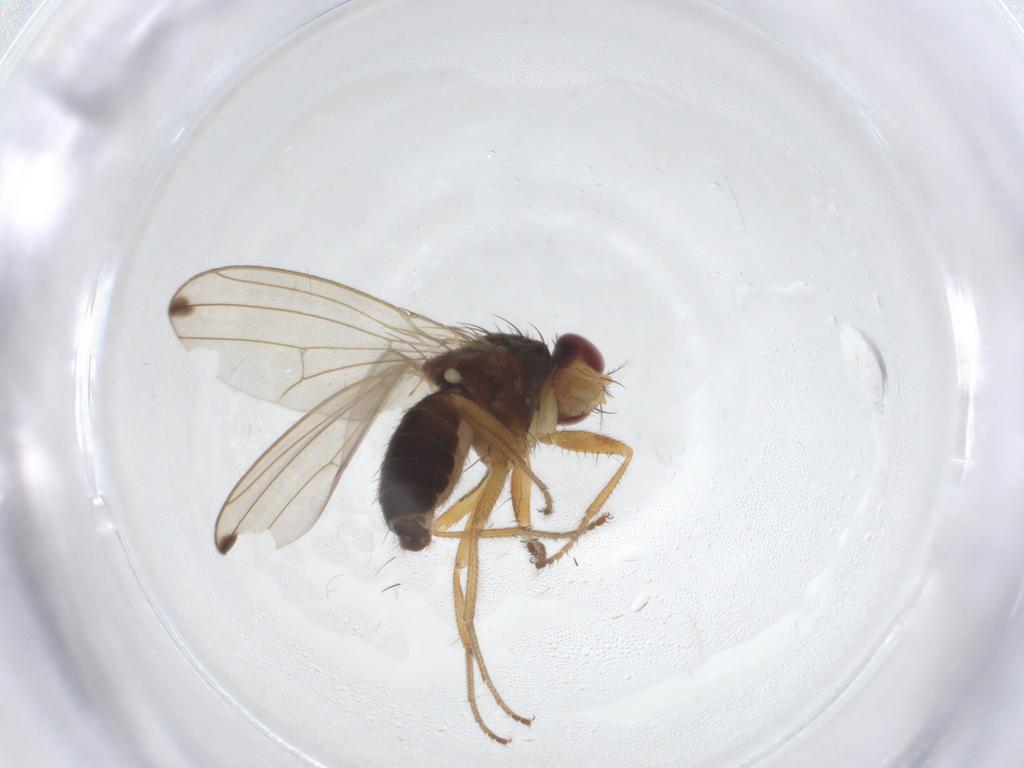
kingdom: Animalia
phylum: Arthropoda
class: Insecta
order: Diptera
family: Drosophilidae
